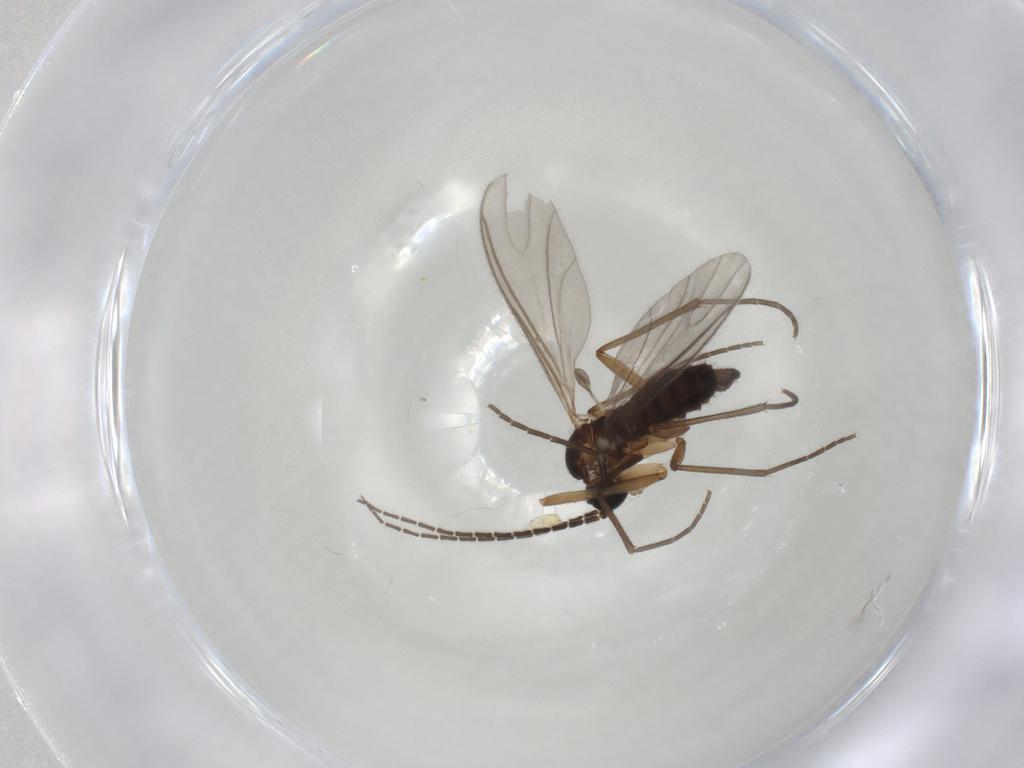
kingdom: Animalia
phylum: Arthropoda
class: Insecta
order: Diptera
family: Sciaridae
